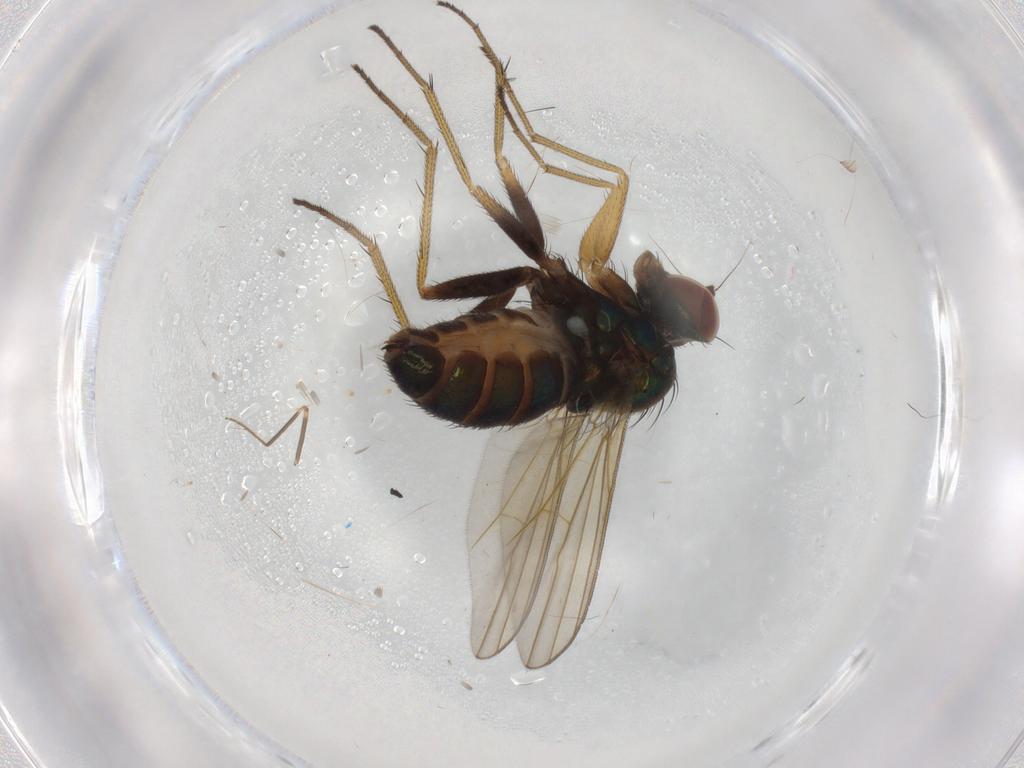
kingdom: Animalia
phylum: Arthropoda
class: Insecta
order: Diptera
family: Dolichopodidae
